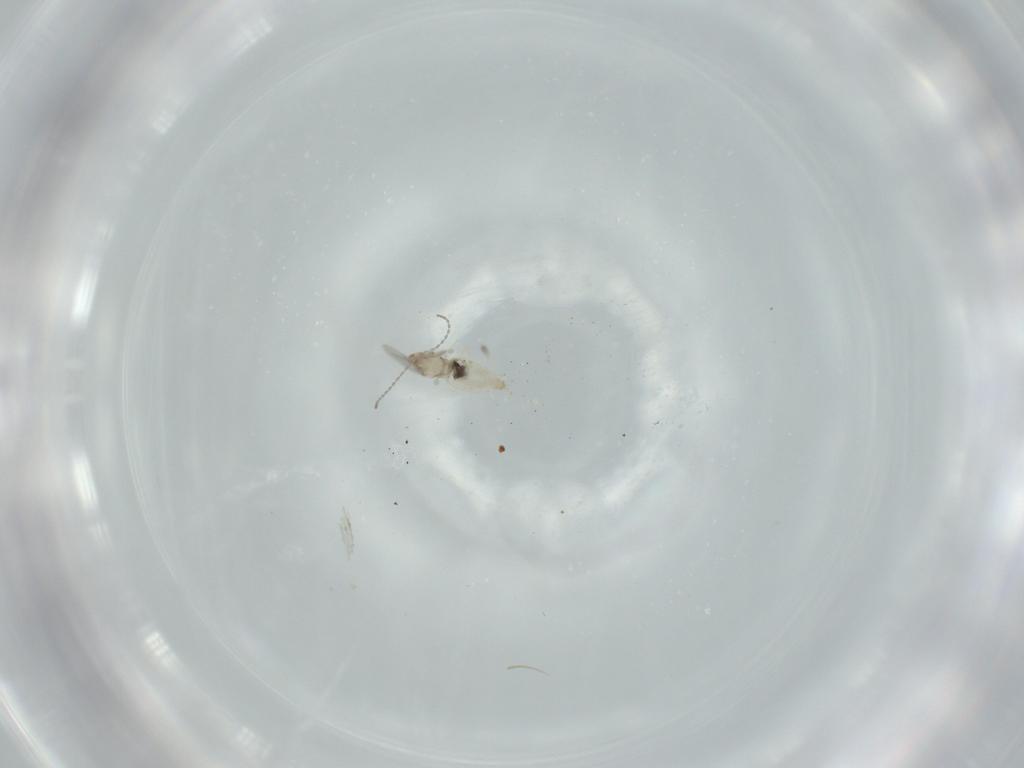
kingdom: Animalia
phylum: Arthropoda
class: Insecta
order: Diptera
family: Cecidomyiidae
